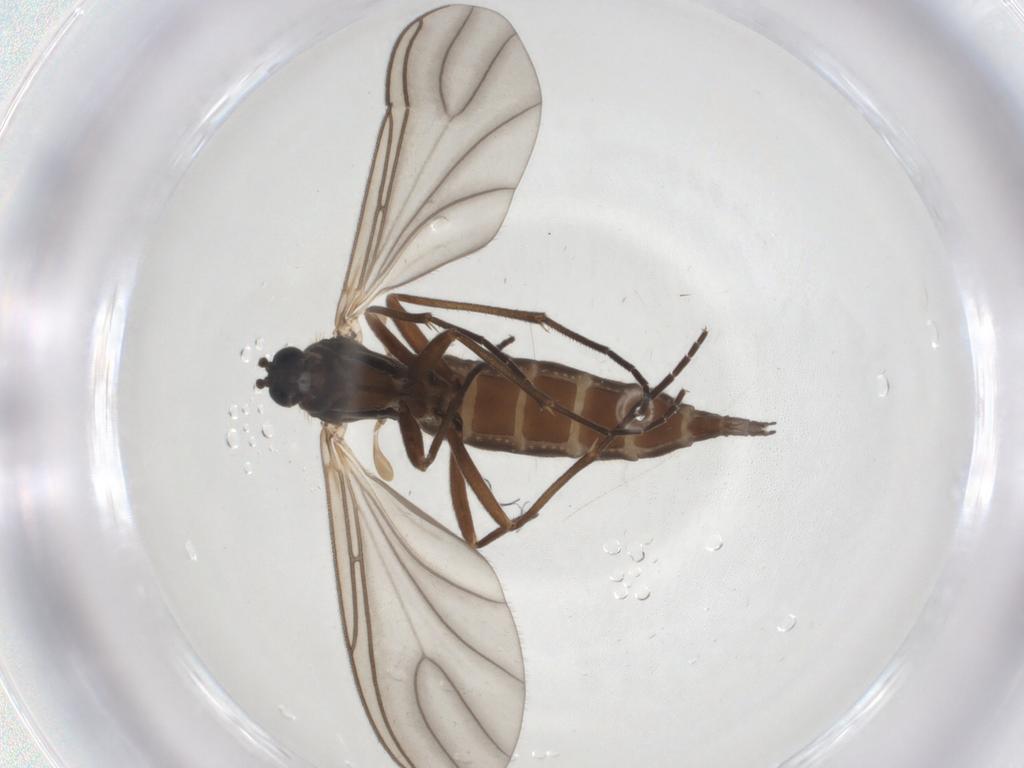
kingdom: Animalia
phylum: Arthropoda
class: Insecta
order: Diptera
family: Sciaridae
